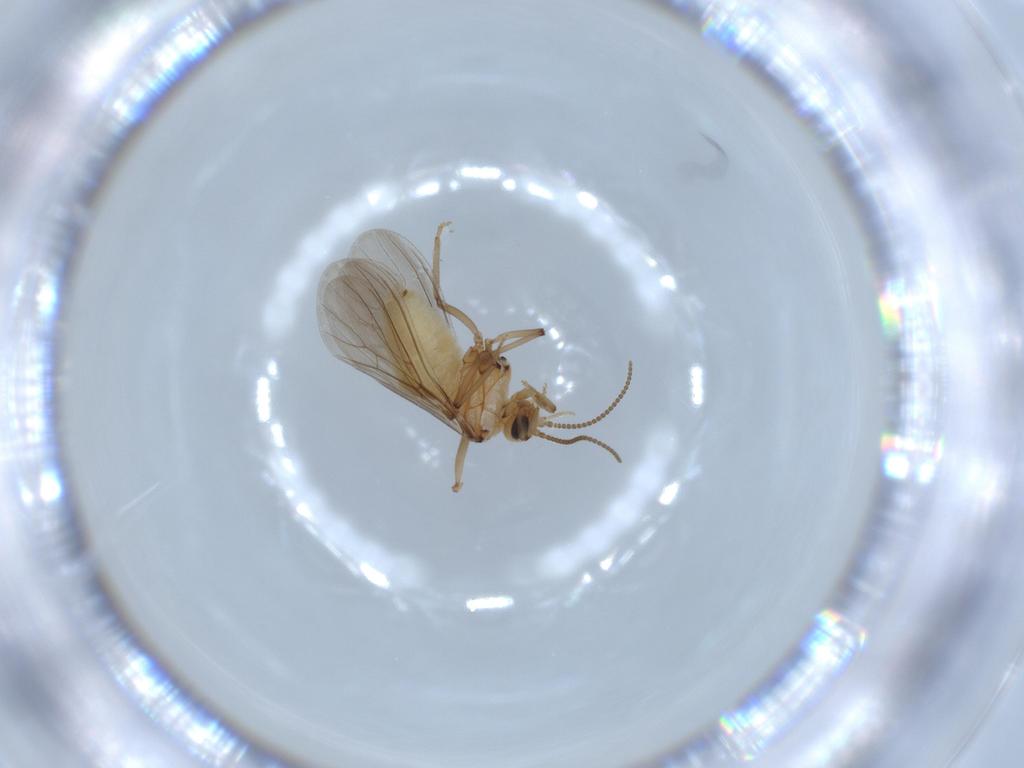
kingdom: Animalia
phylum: Arthropoda
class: Insecta
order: Neuroptera
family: Coniopterygidae
